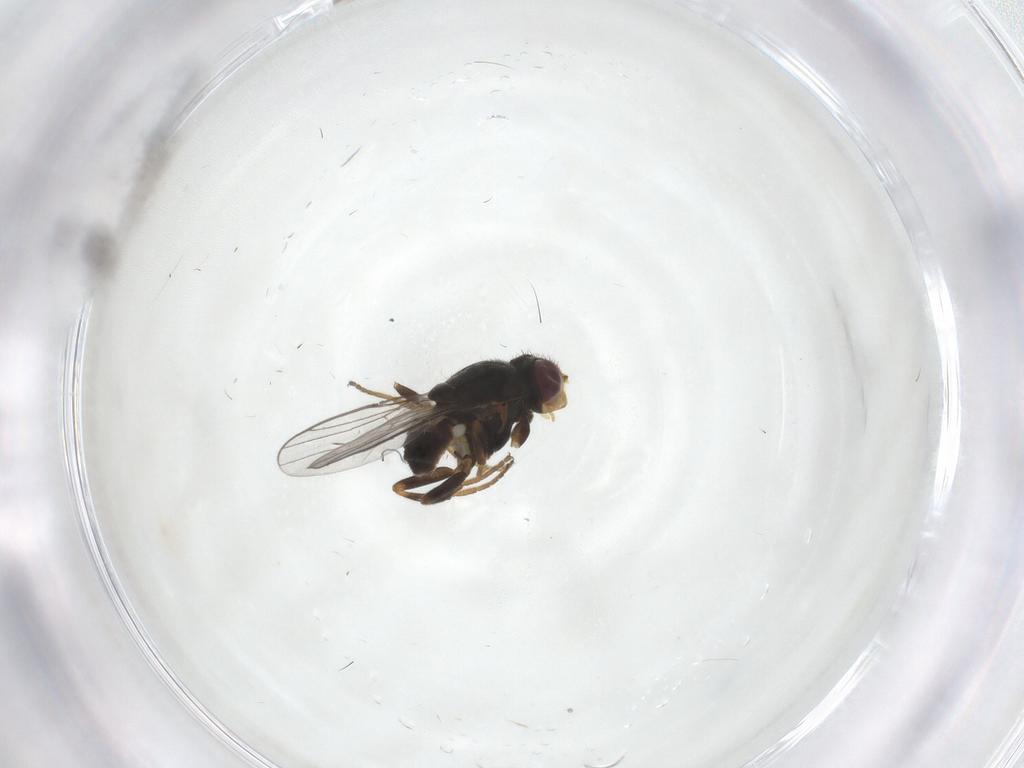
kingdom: Animalia
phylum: Arthropoda
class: Insecta
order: Diptera
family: Chloropidae
